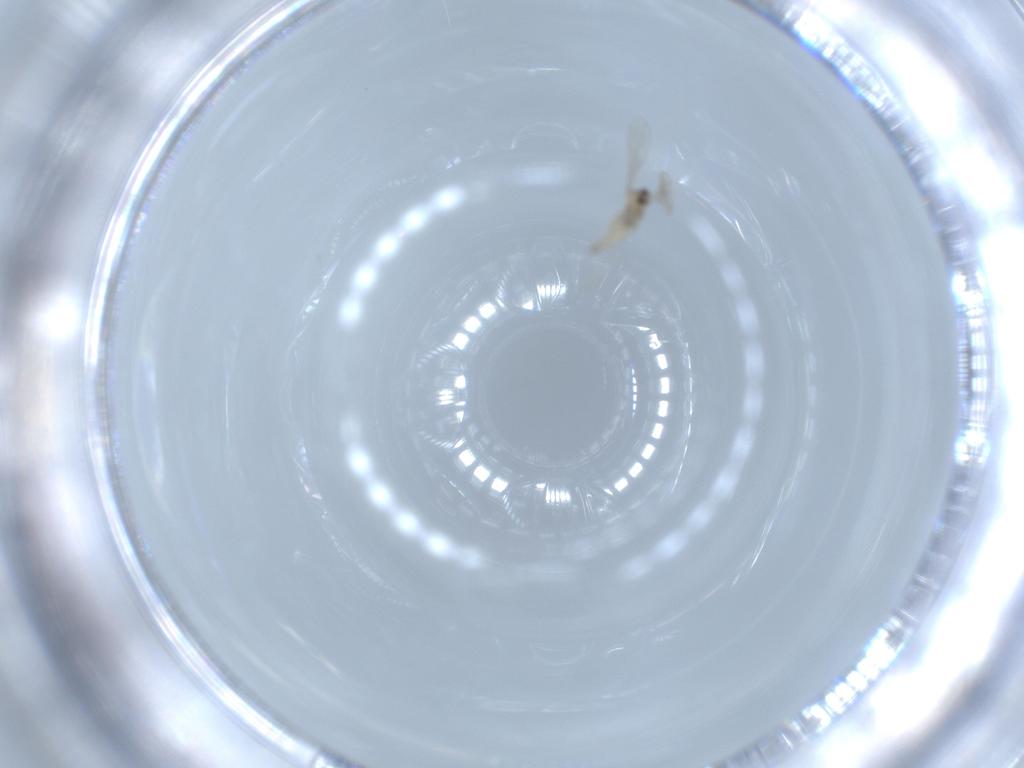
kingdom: Animalia
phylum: Arthropoda
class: Insecta
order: Diptera
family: Cecidomyiidae
